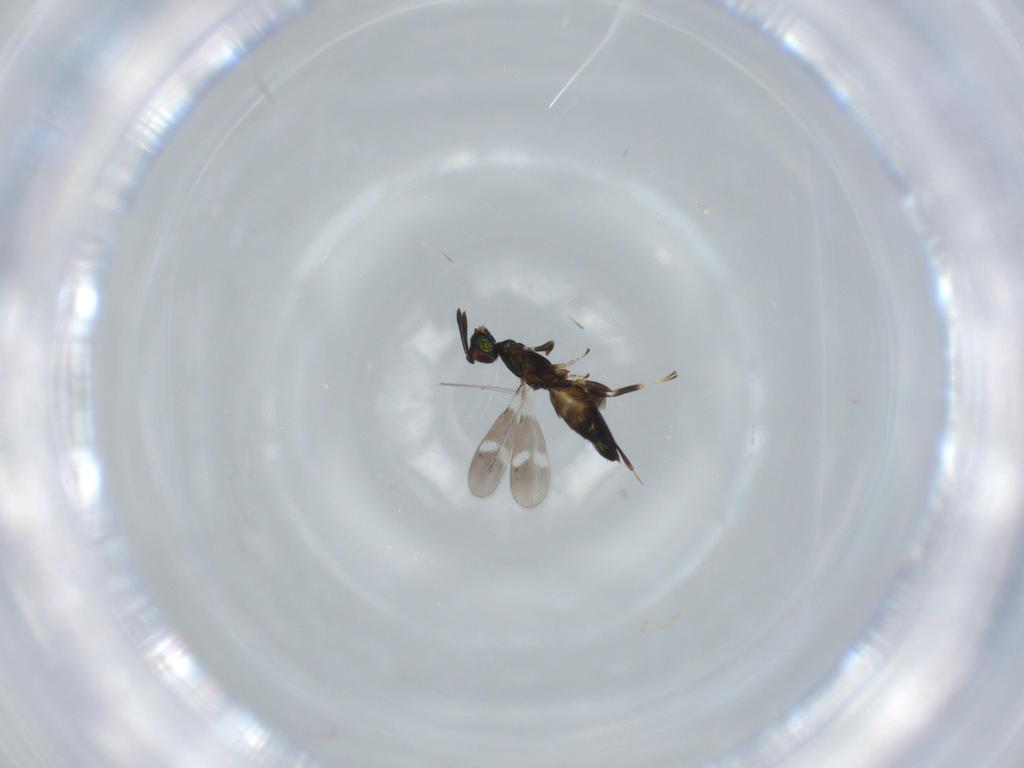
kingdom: Animalia
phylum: Arthropoda
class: Insecta
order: Hymenoptera
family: Eupelmidae
